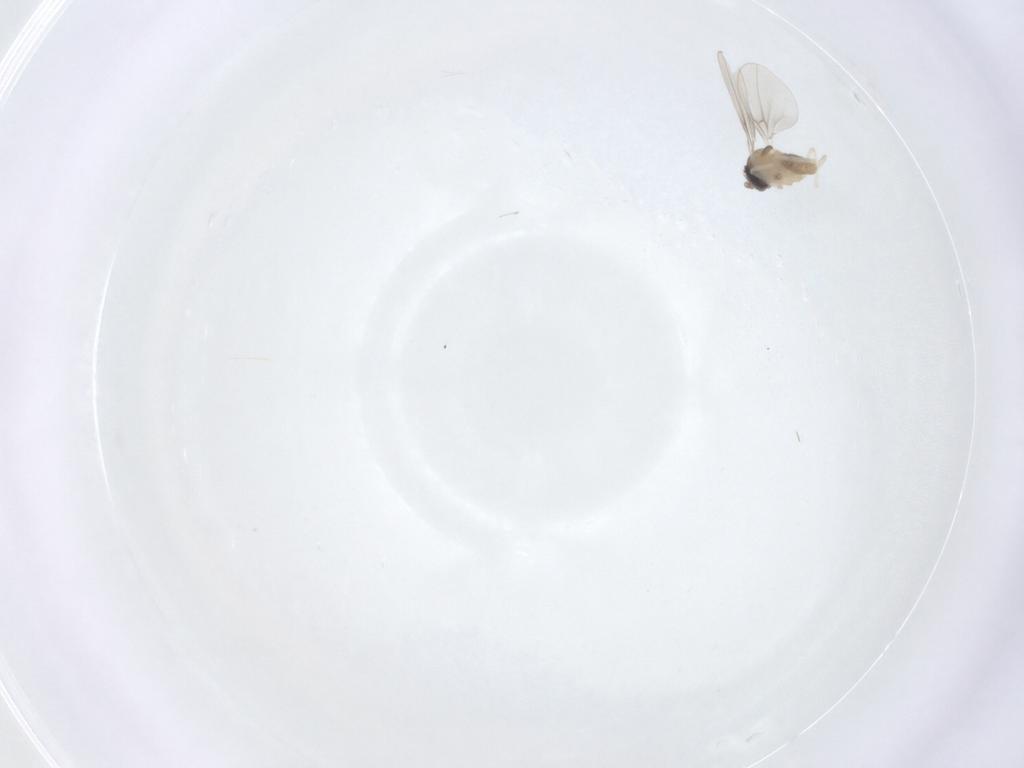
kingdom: Animalia
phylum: Arthropoda
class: Insecta
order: Diptera
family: Cecidomyiidae
